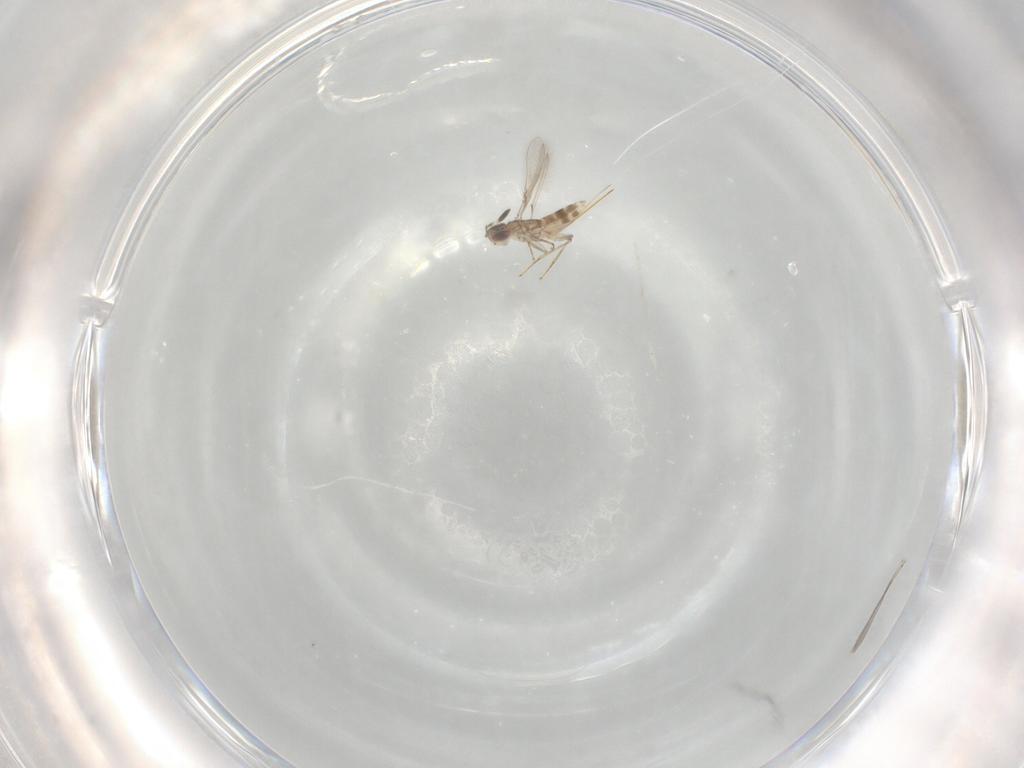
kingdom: Animalia
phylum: Arthropoda
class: Insecta
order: Hymenoptera
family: Mymaridae
